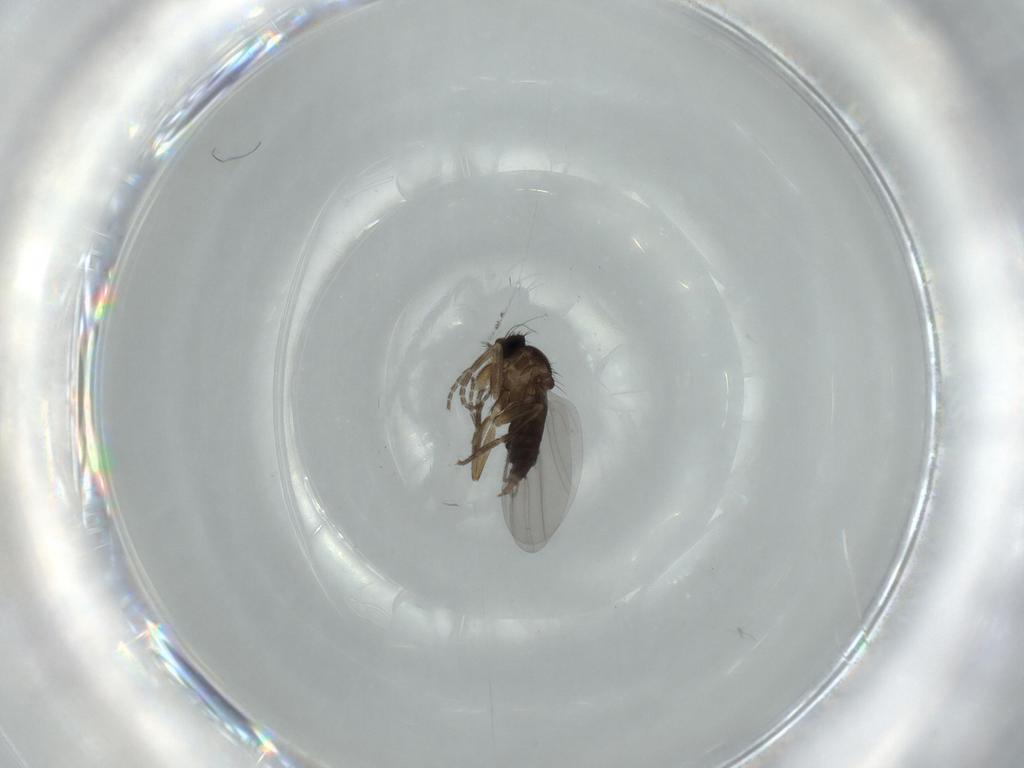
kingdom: Animalia
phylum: Arthropoda
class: Insecta
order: Diptera
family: Phoridae
